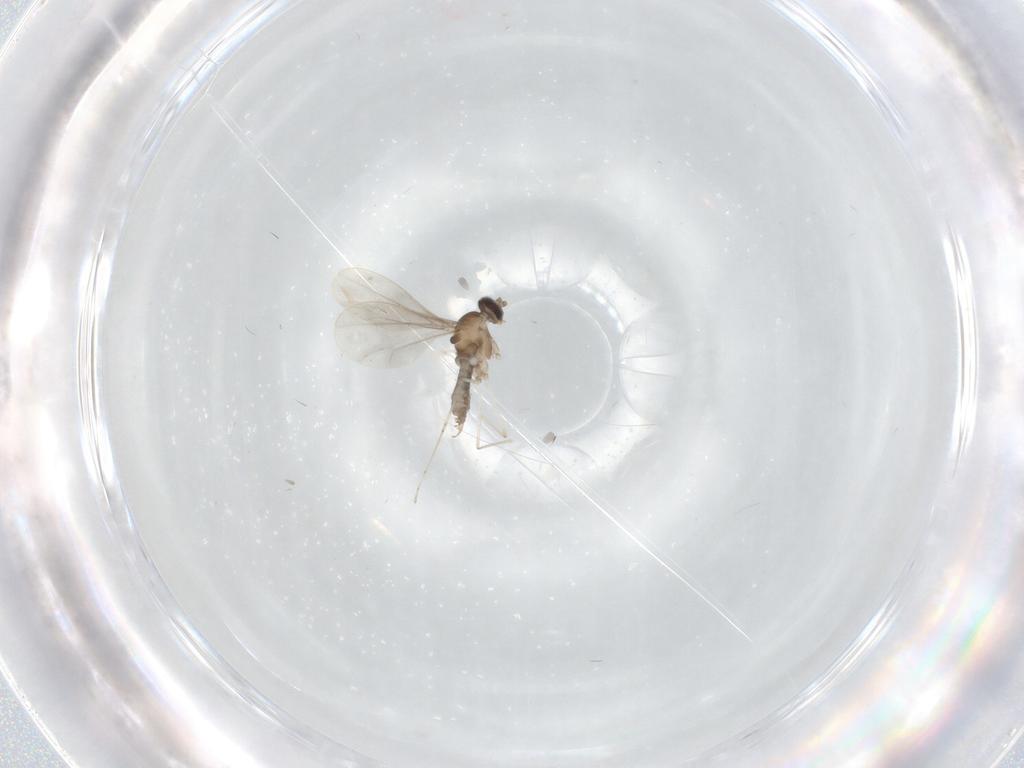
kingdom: Animalia
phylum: Arthropoda
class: Insecta
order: Diptera
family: Cecidomyiidae
